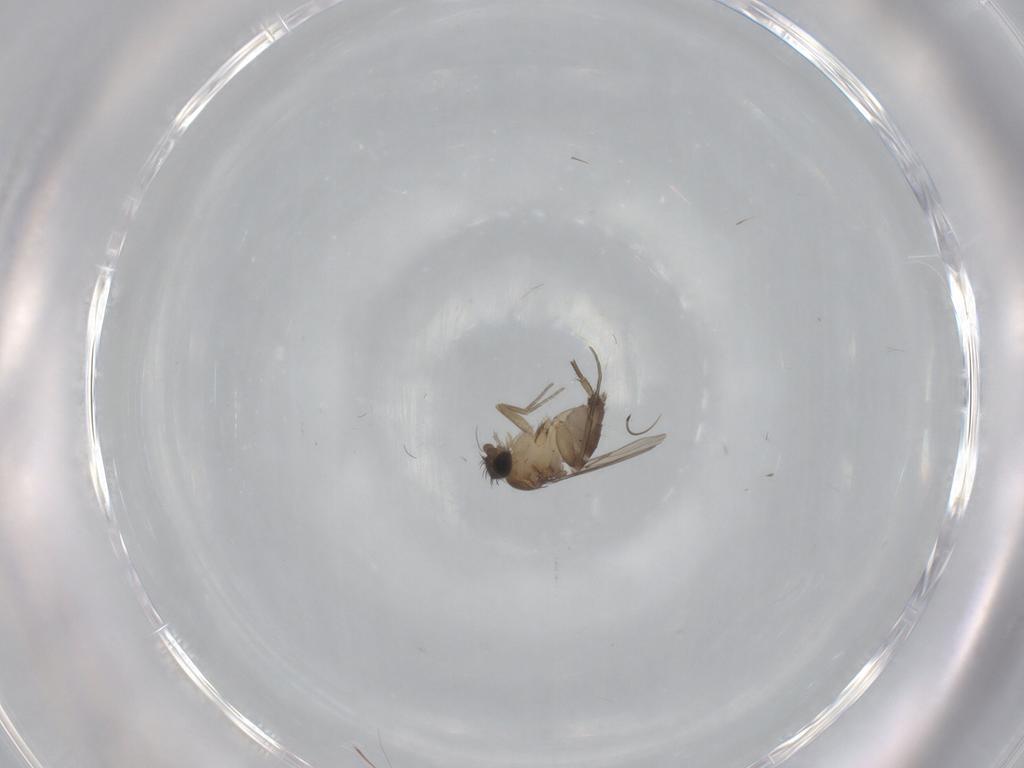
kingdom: Animalia
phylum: Arthropoda
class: Insecta
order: Diptera
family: Phoridae
